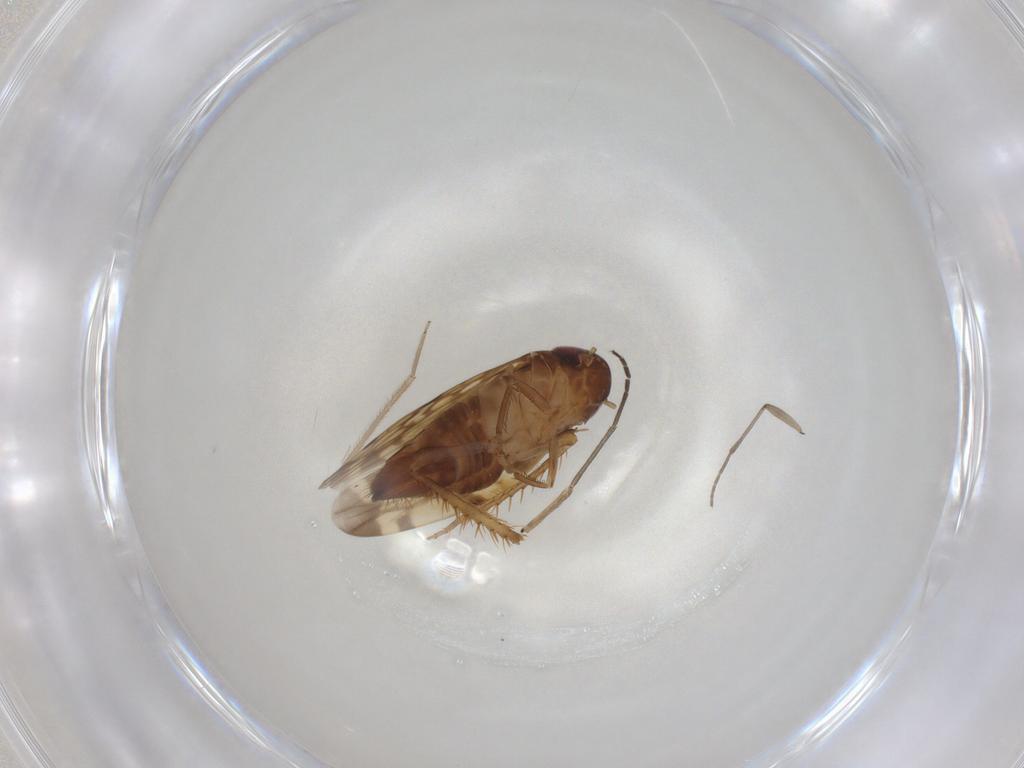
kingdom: Animalia
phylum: Arthropoda
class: Insecta
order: Hemiptera
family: Cicadellidae
